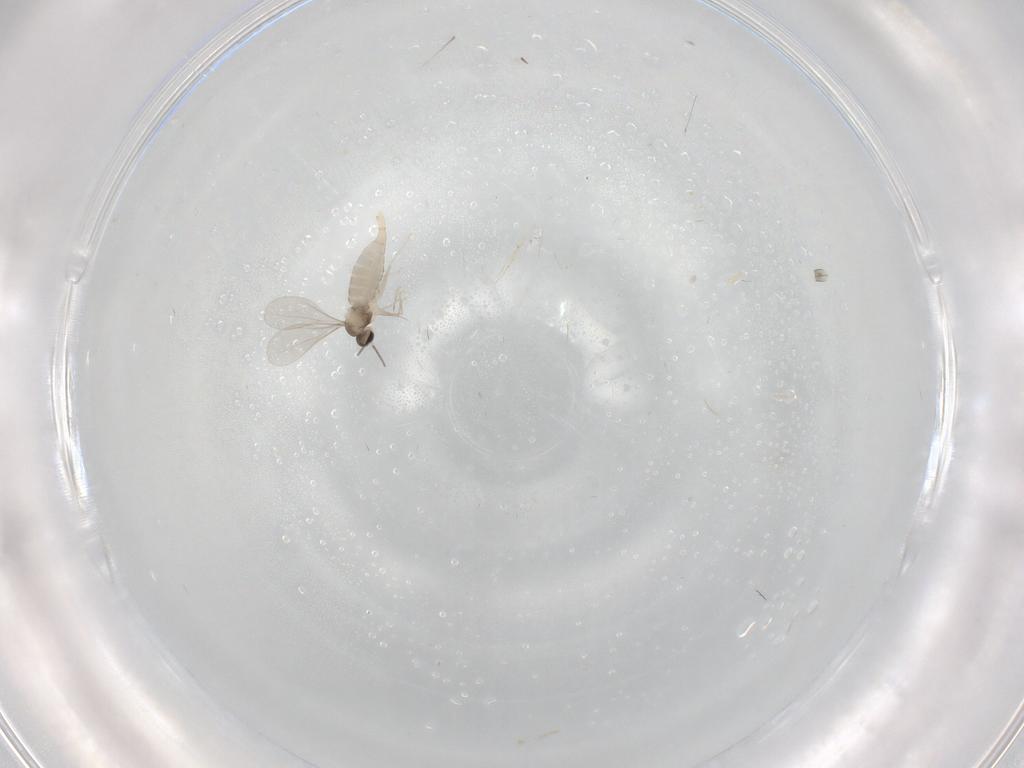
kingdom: Animalia
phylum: Arthropoda
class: Insecta
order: Diptera
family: Cecidomyiidae
